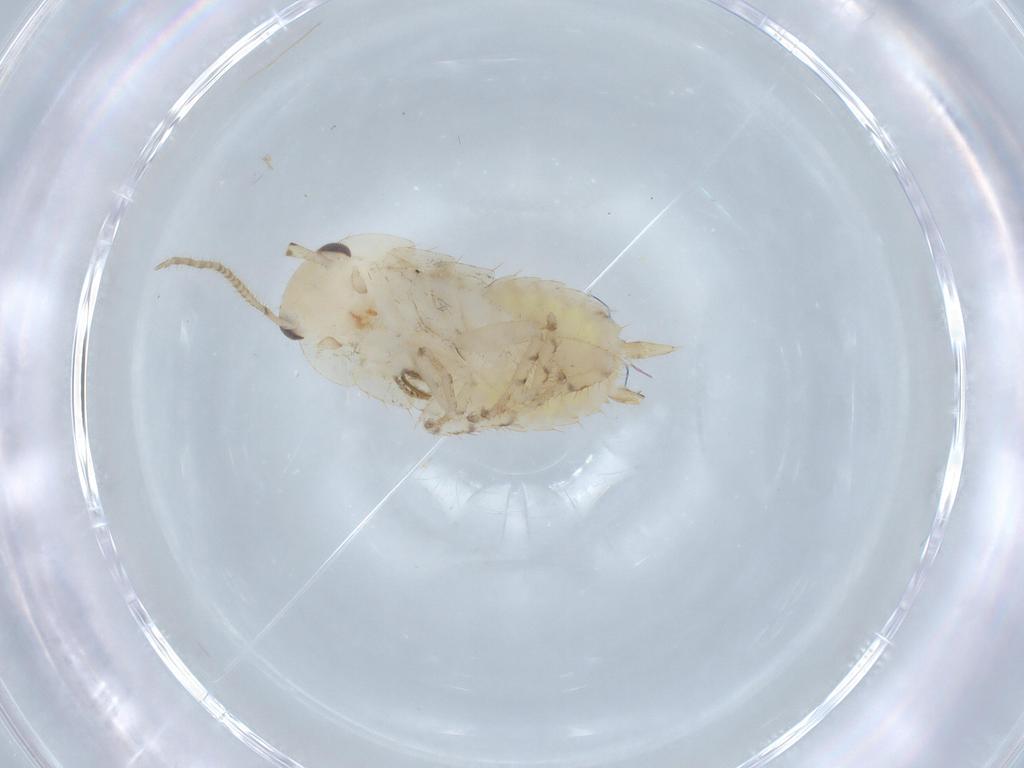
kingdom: Animalia
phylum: Arthropoda
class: Insecta
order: Blattodea
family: Ectobiidae
